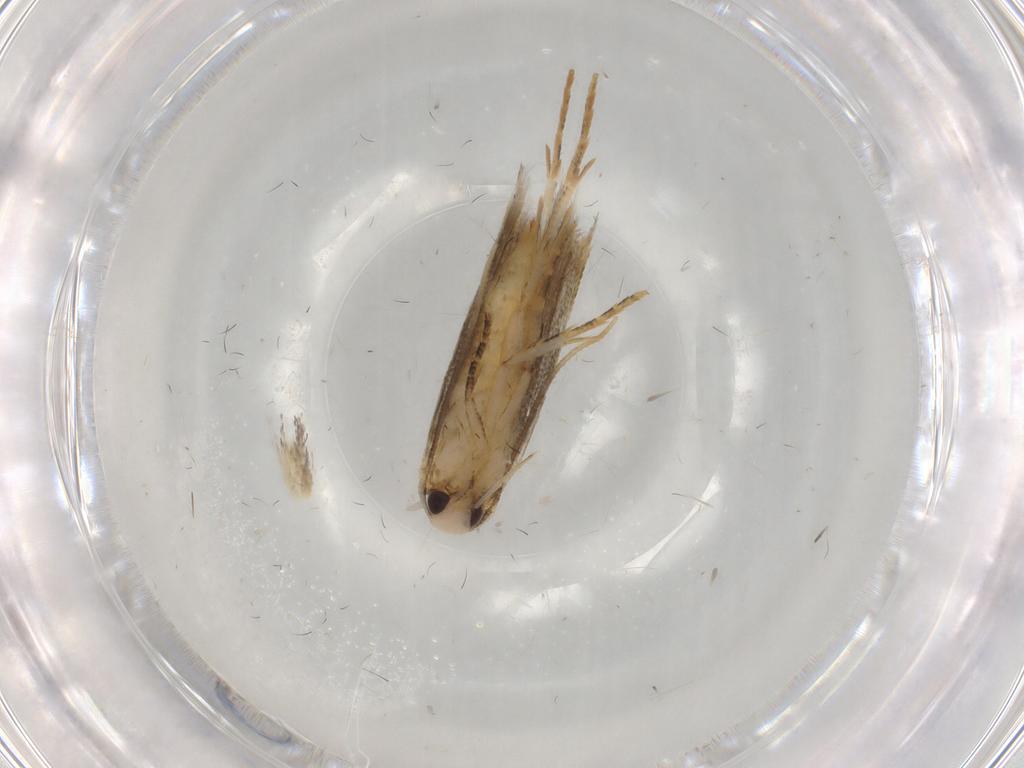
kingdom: Animalia
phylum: Arthropoda
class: Insecta
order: Lepidoptera
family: Cosmopterigidae
